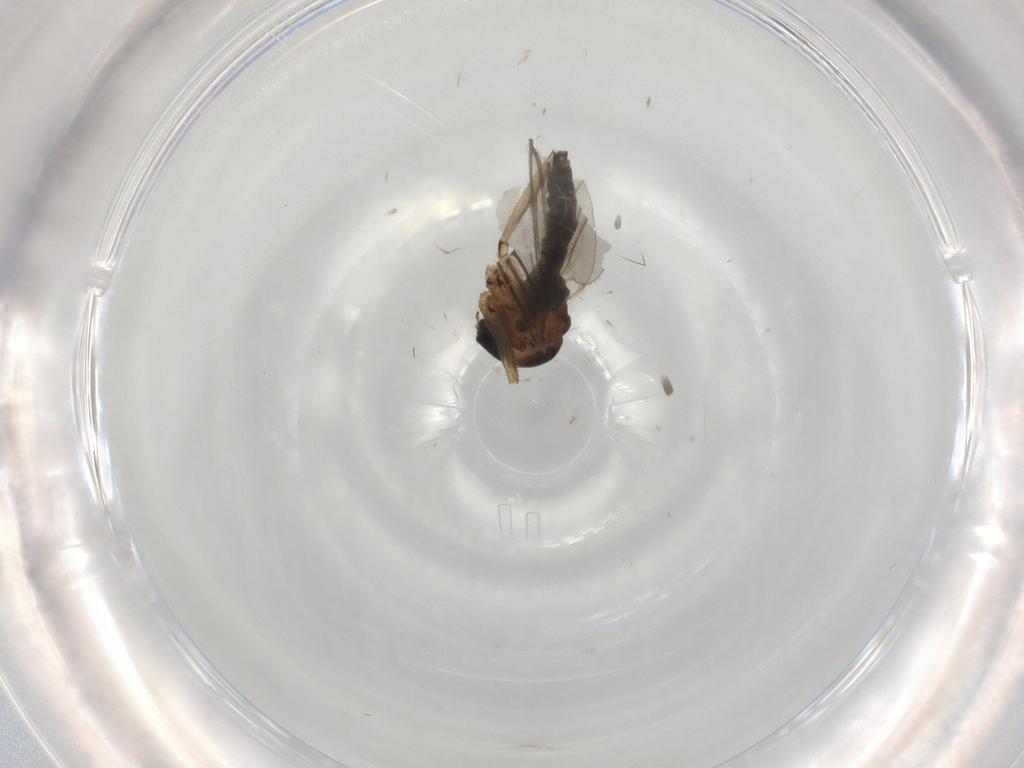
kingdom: Animalia
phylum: Arthropoda
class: Insecta
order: Diptera
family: Sciaridae
